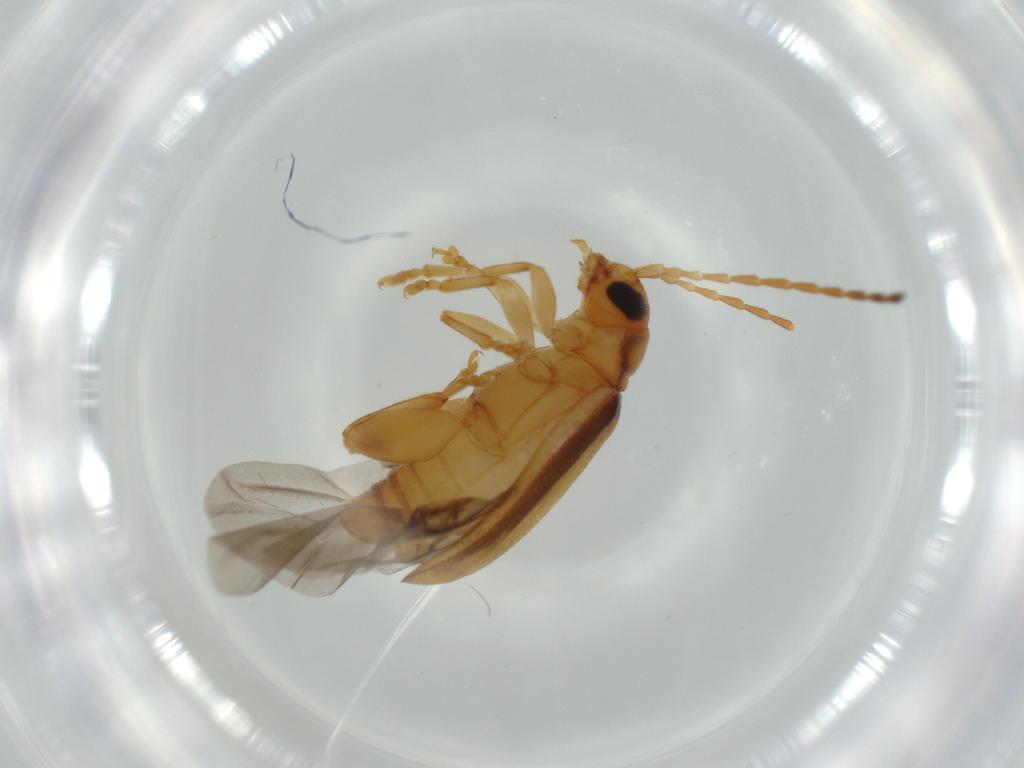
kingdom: Animalia
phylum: Arthropoda
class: Insecta
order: Coleoptera
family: Chrysomelidae
